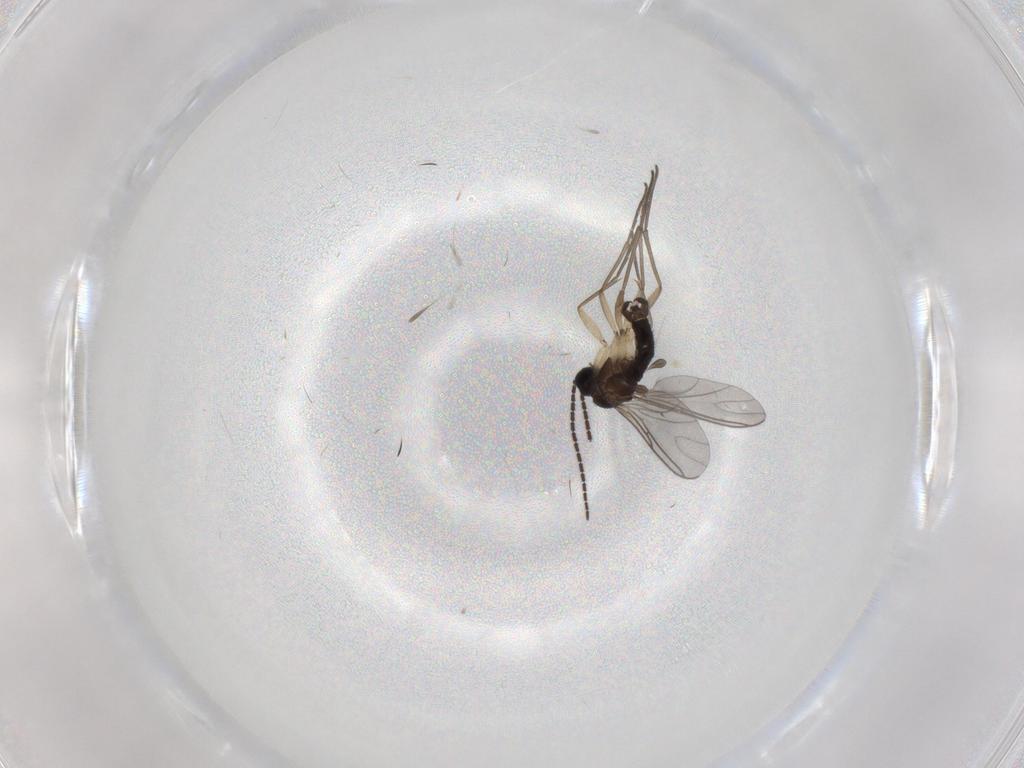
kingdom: Animalia
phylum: Arthropoda
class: Insecta
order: Diptera
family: Sciaridae
